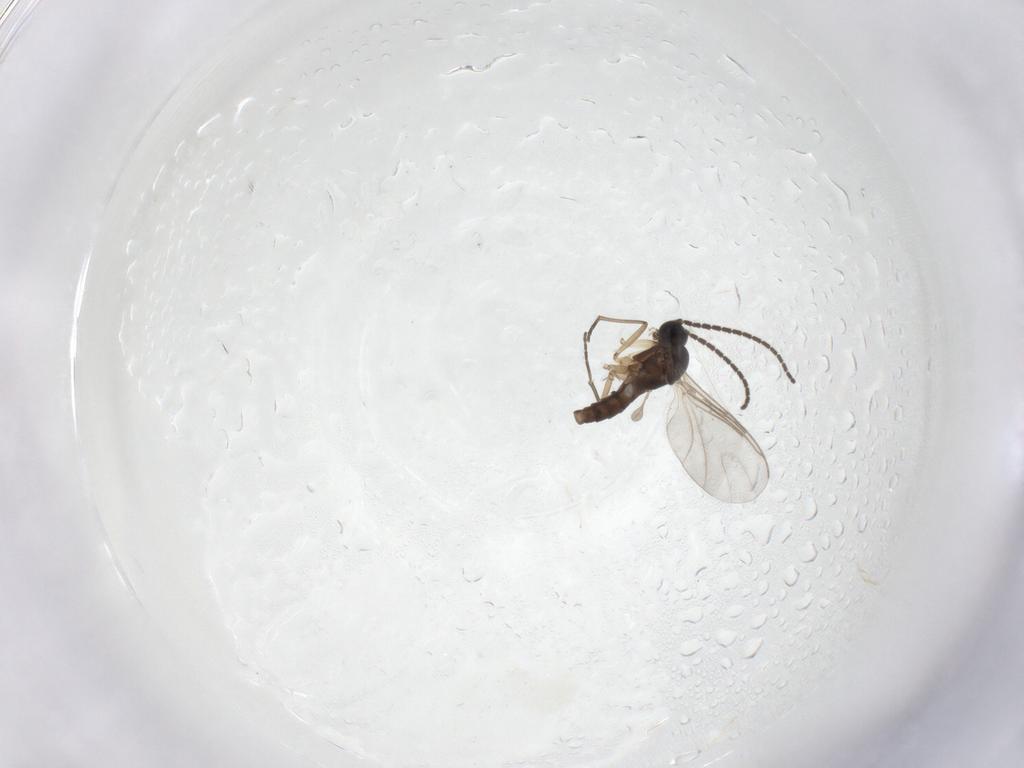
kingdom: Animalia
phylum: Arthropoda
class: Insecta
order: Diptera
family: Sciaridae
